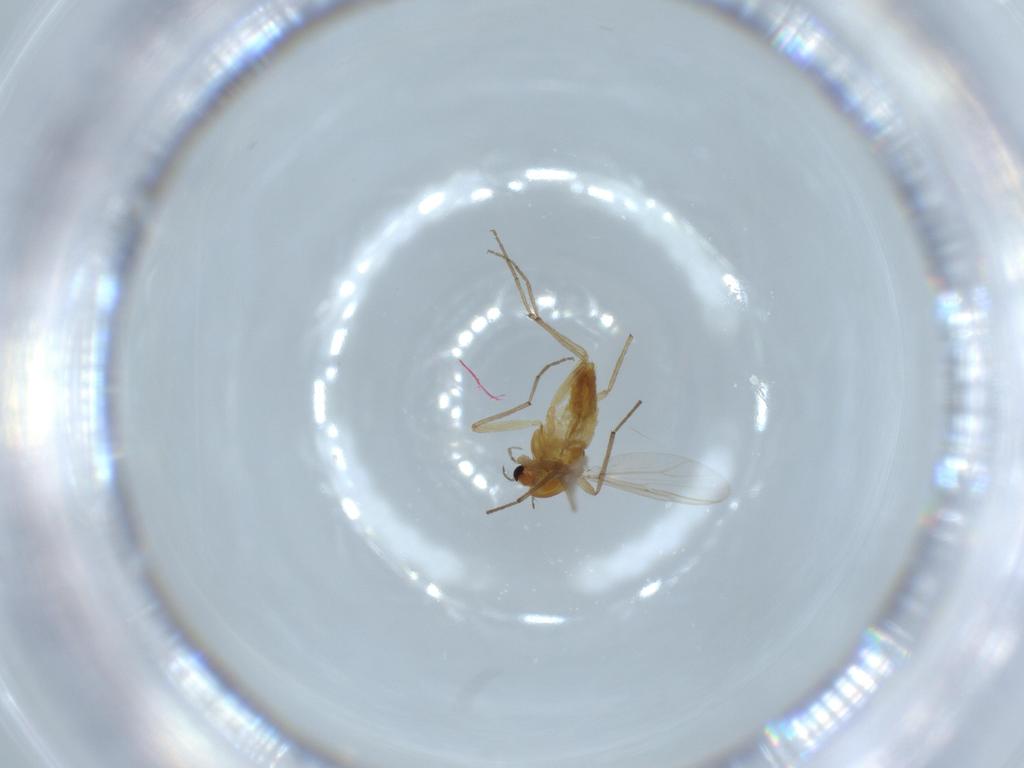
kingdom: Animalia
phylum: Arthropoda
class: Insecta
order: Diptera
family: Chironomidae
